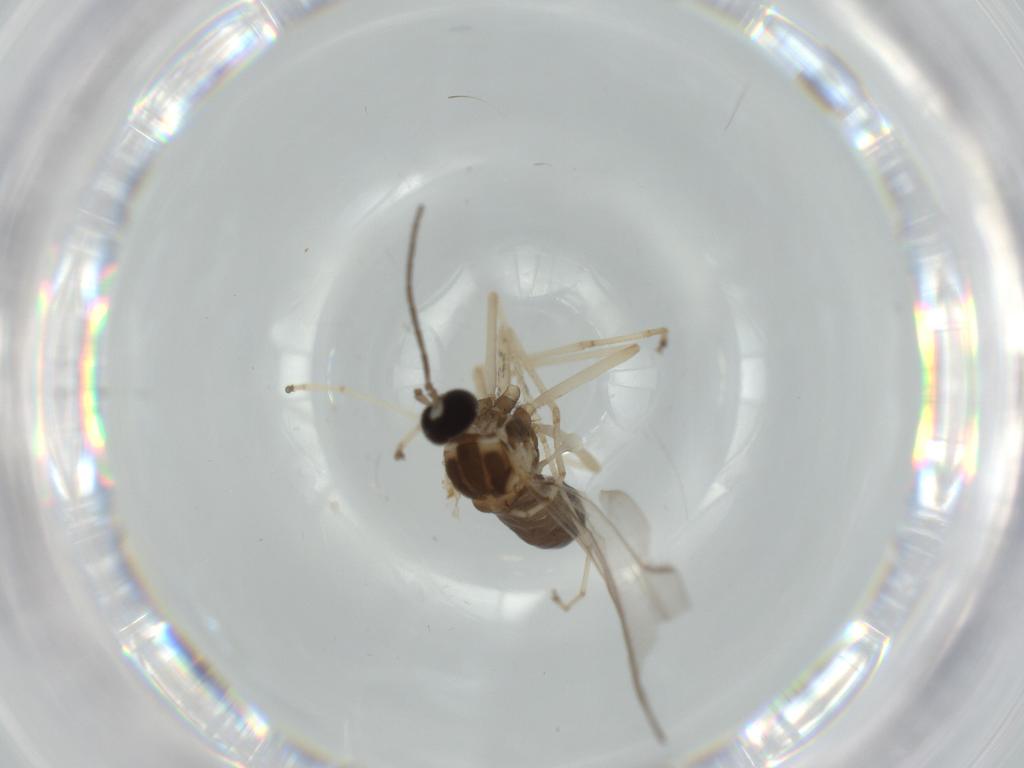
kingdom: Animalia
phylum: Arthropoda
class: Insecta
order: Diptera
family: Cecidomyiidae
